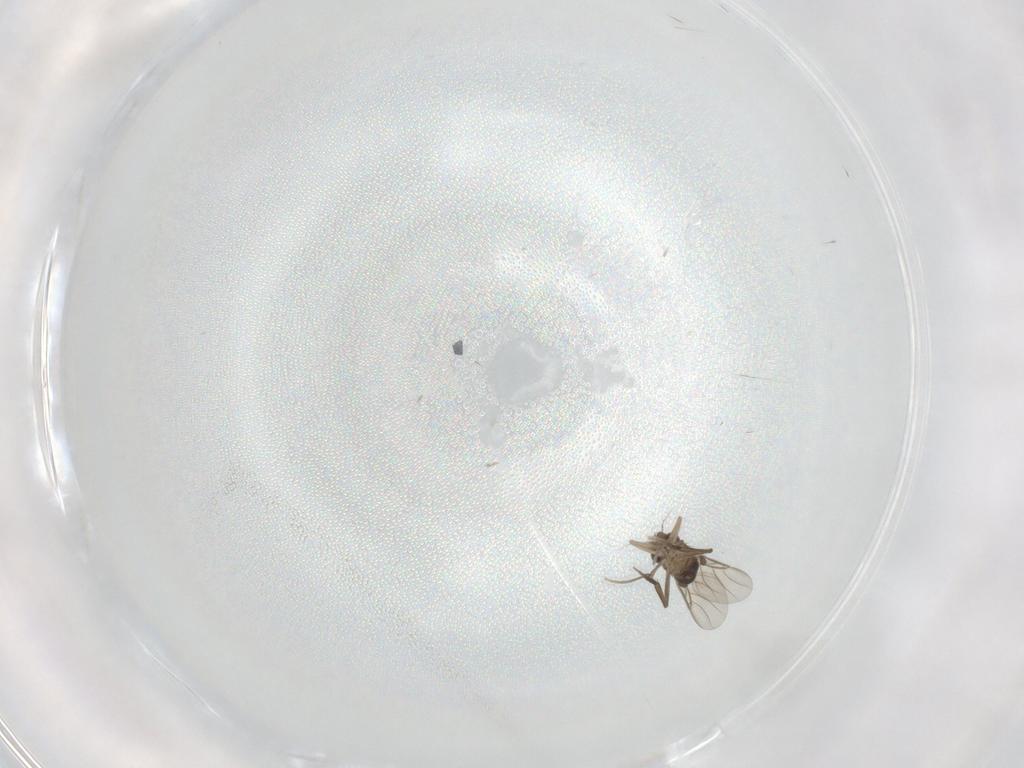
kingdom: Animalia
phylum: Arthropoda
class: Insecta
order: Diptera
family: Phoridae
